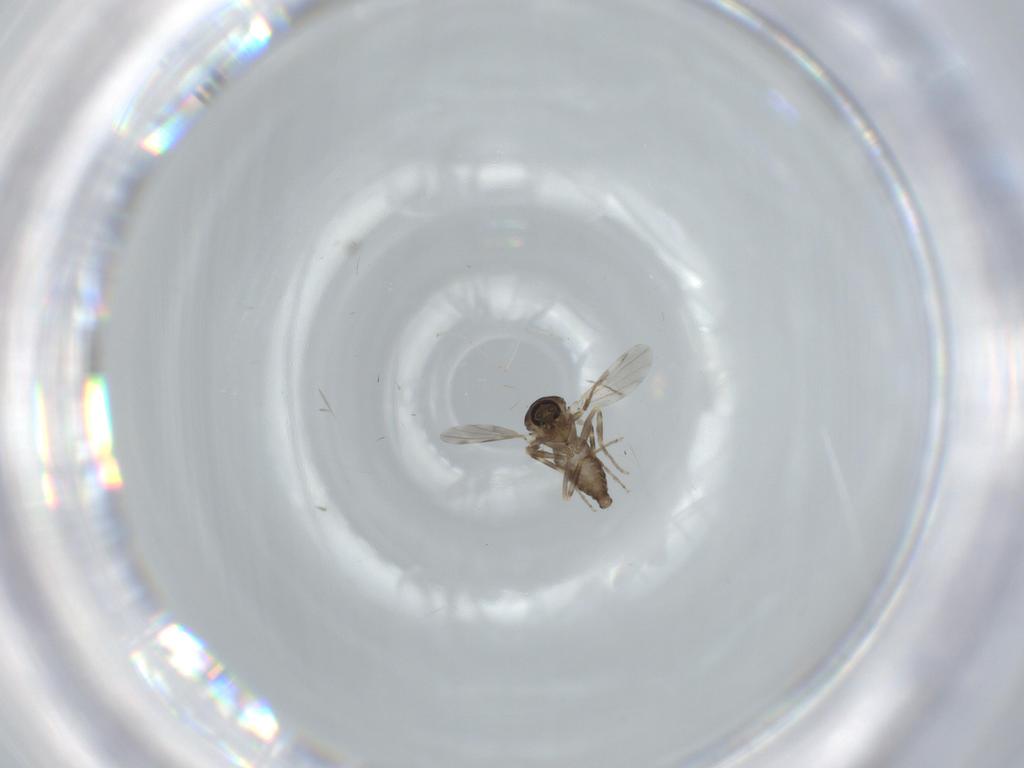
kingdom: Animalia
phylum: Arthropoda
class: Insecta
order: Diptera
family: Ceratopogonidae
